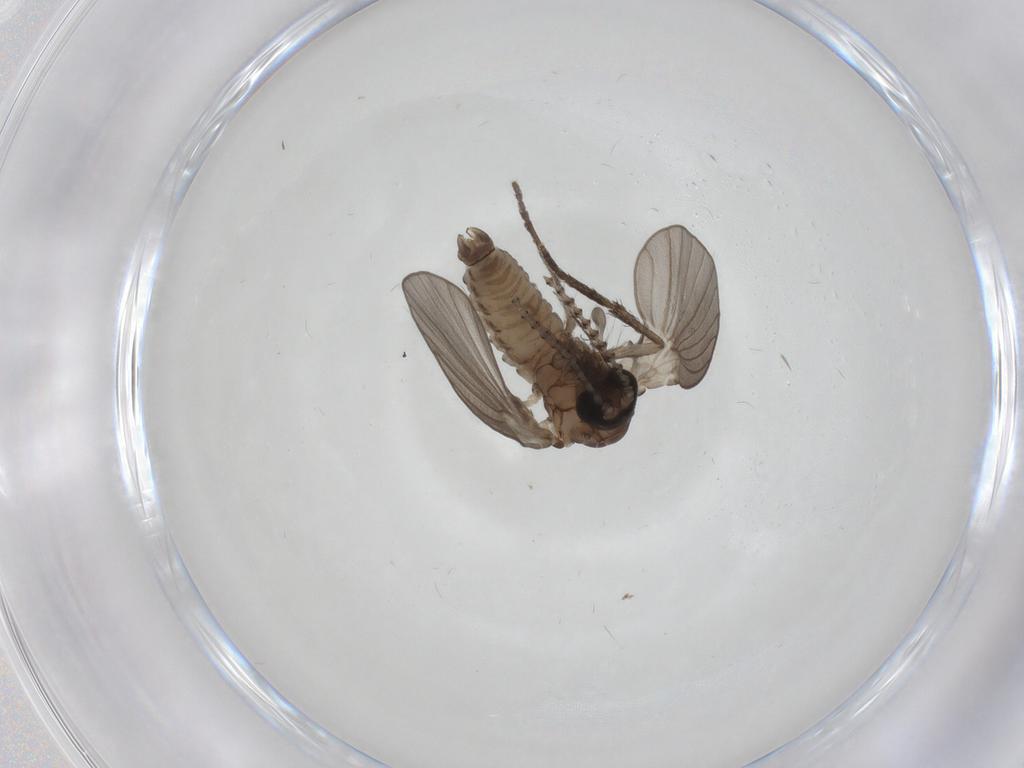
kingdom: Animalia
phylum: Arthropoda
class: Insecta
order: Diptera
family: Psychodidae
